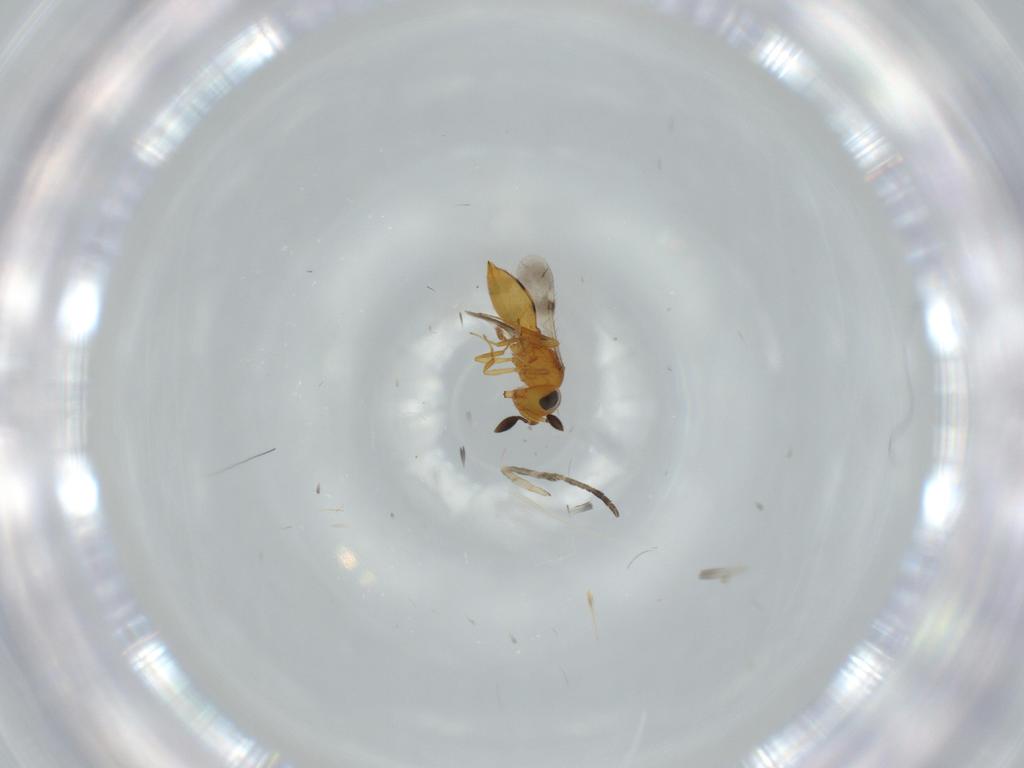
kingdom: Animalia
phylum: Arthropoda
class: Insecta
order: Hymenoptera
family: Scelionidae
